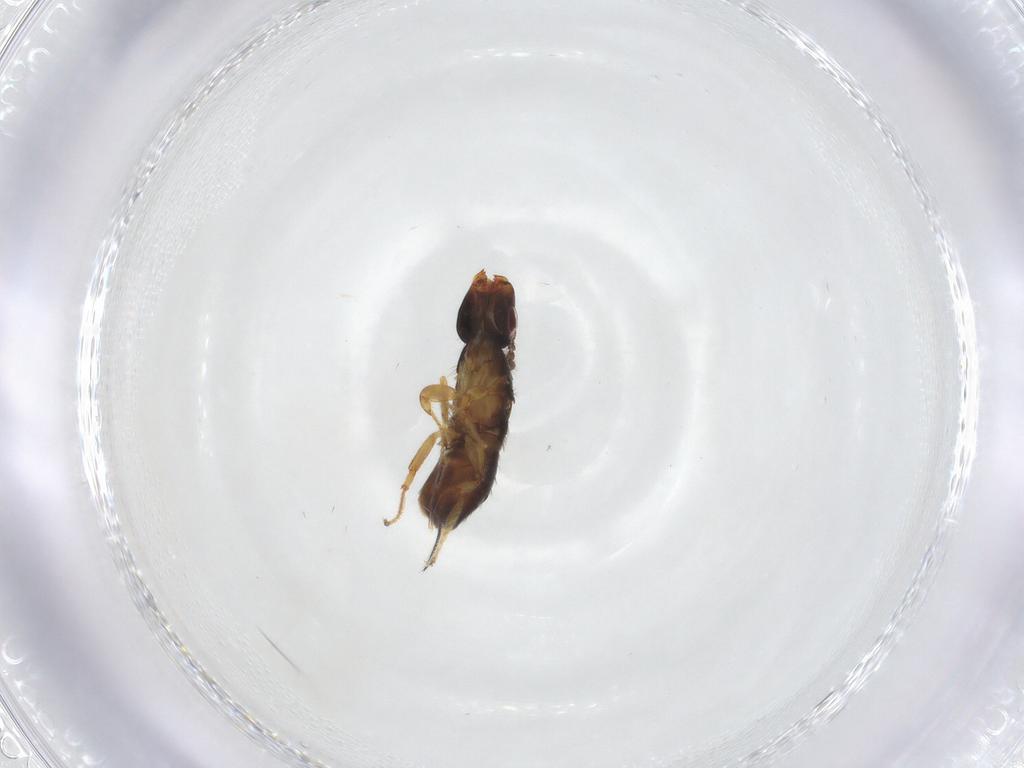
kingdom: Animalia
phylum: Arthropoda
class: Insecta
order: Hymenoptera
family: Agaonidae
